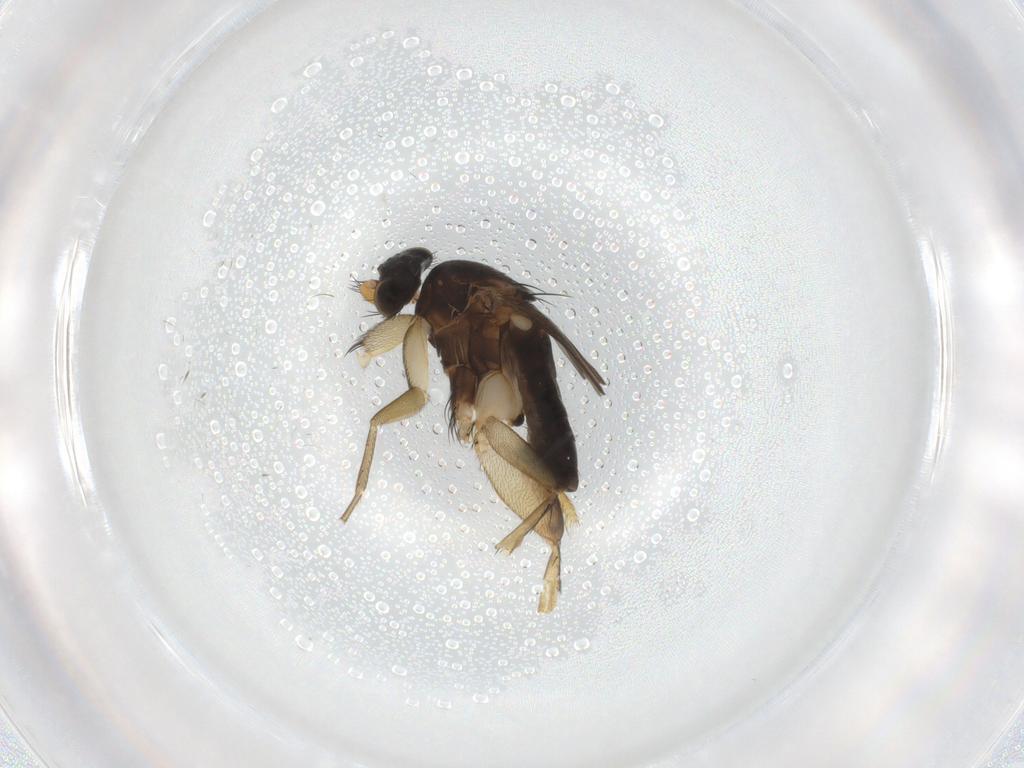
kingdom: Animalia
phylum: Arthropoda
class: Insecta
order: Diptera
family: Phoridae
